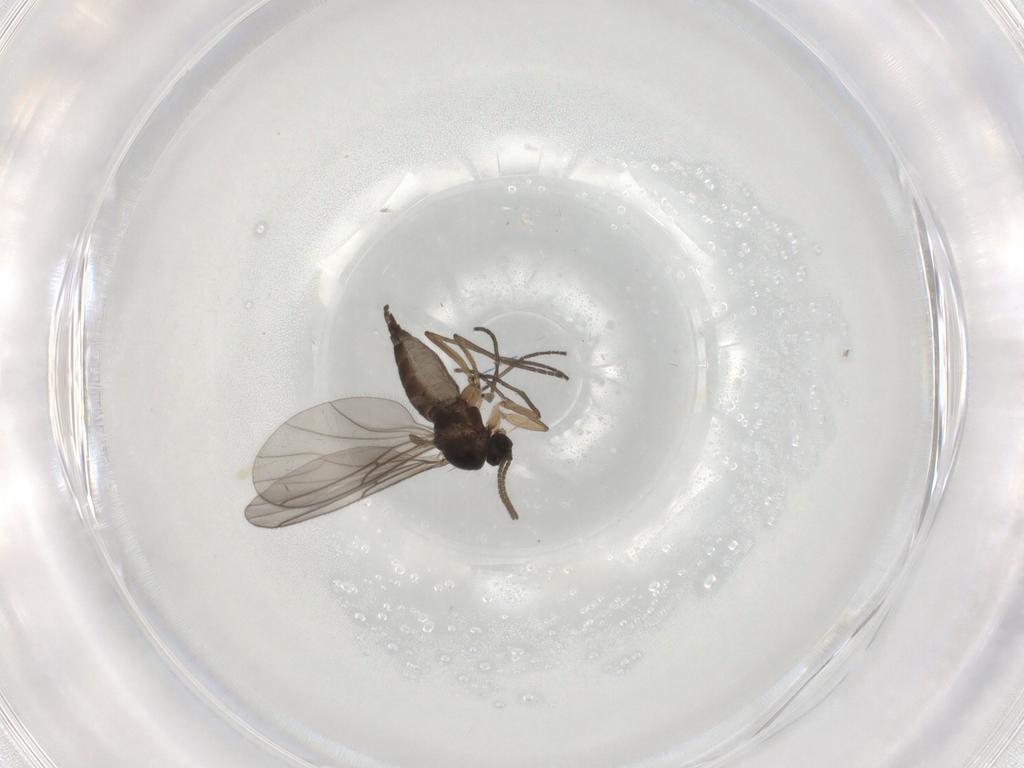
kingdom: Animalia
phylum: Arthropoda
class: Insecta
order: Diptera
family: Sciaridae
